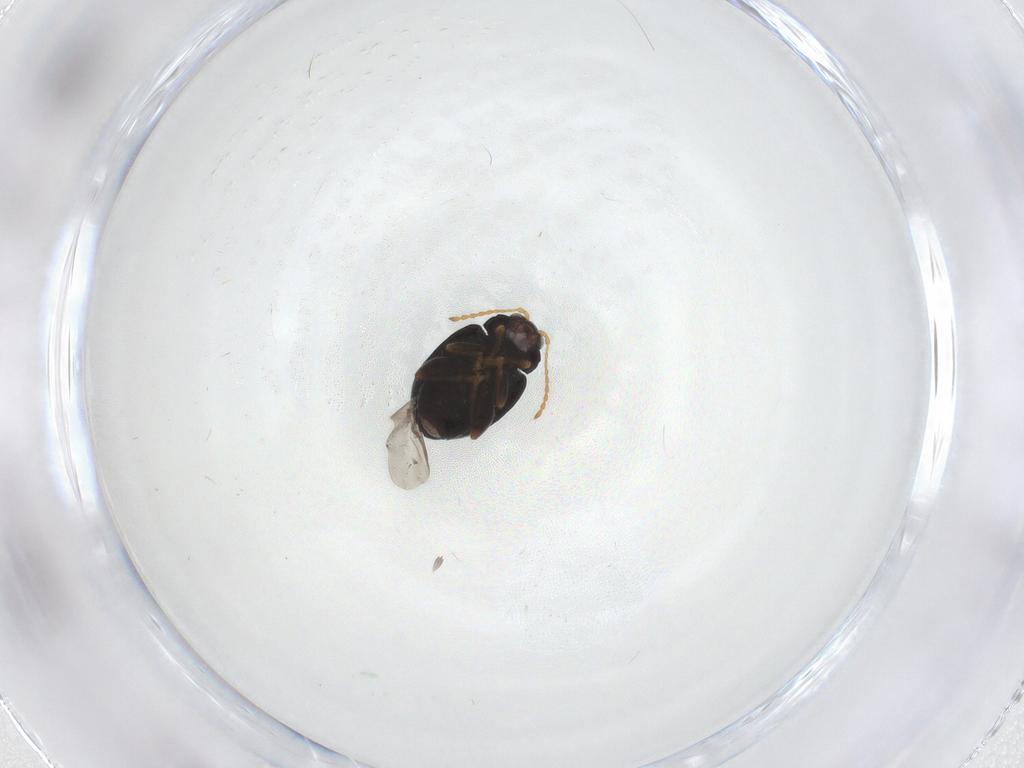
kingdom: Animalia
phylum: Arthropoda
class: Insecta
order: Coleoptera
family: Chrysomelidae
